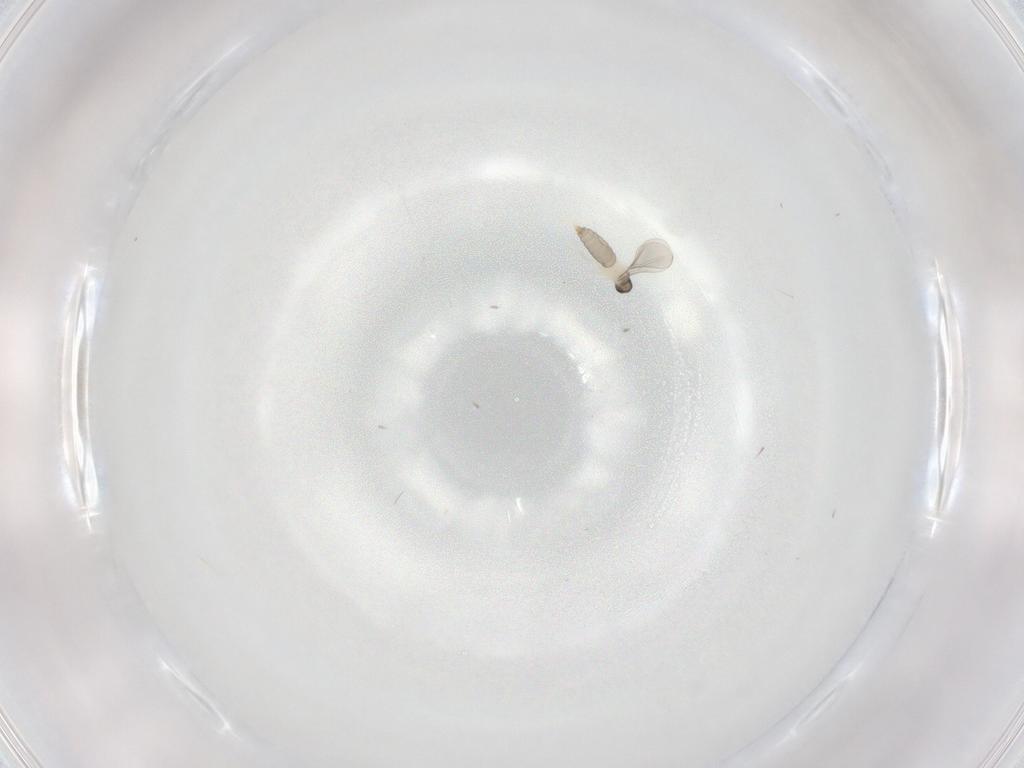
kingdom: Animalia
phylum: Arthropoda
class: Insecta
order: Diptera
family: Cecidomyiidae
